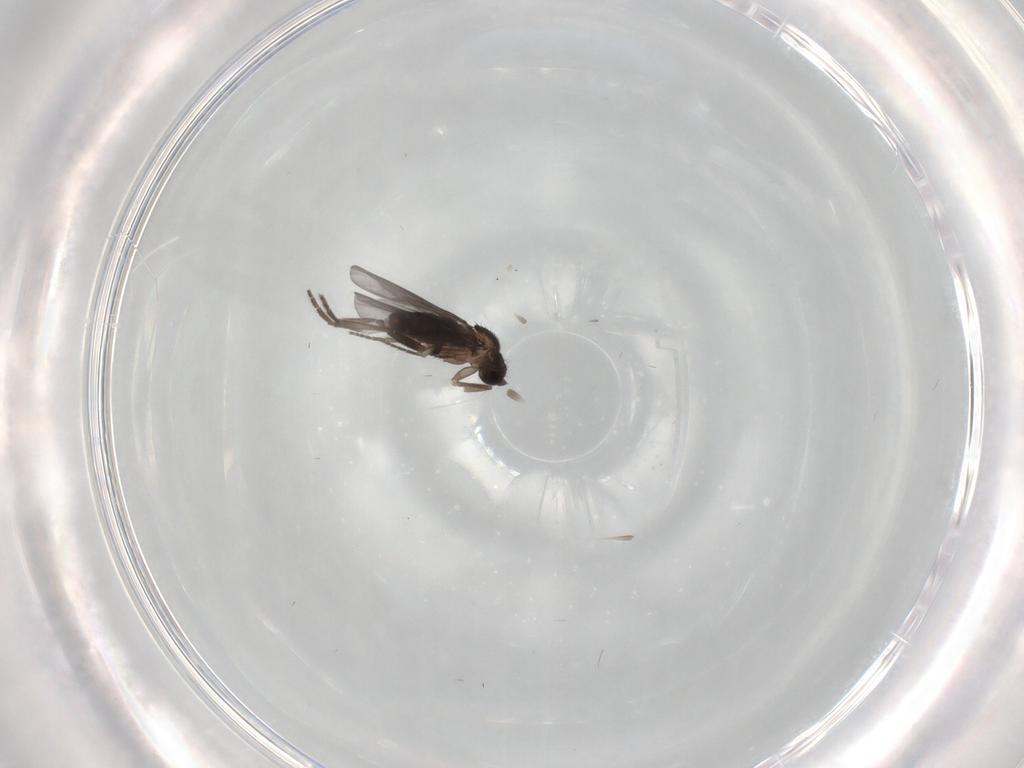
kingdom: Animalia
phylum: Arthropoda
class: Insecta
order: Diptera
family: Phoridae
